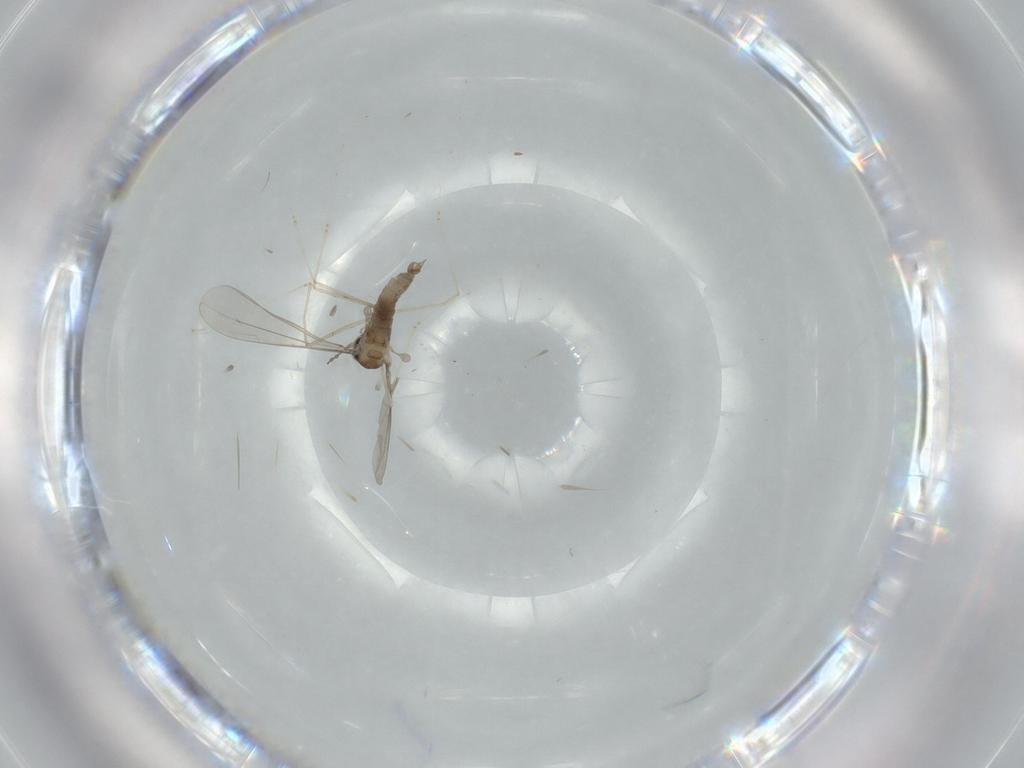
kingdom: Animalia
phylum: Arthropoda
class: Insecta
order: Diptera
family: Cecidomyiidae
